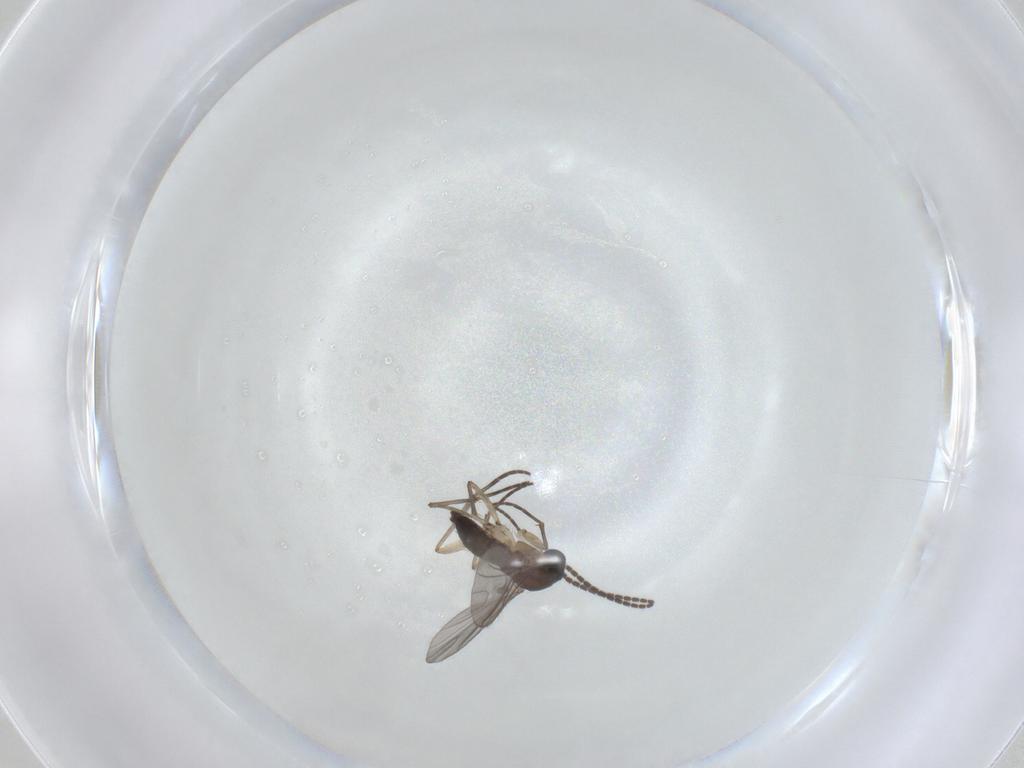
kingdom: Animalia
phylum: Arthropoda
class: Insecta
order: Diptera
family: Sciaridae
